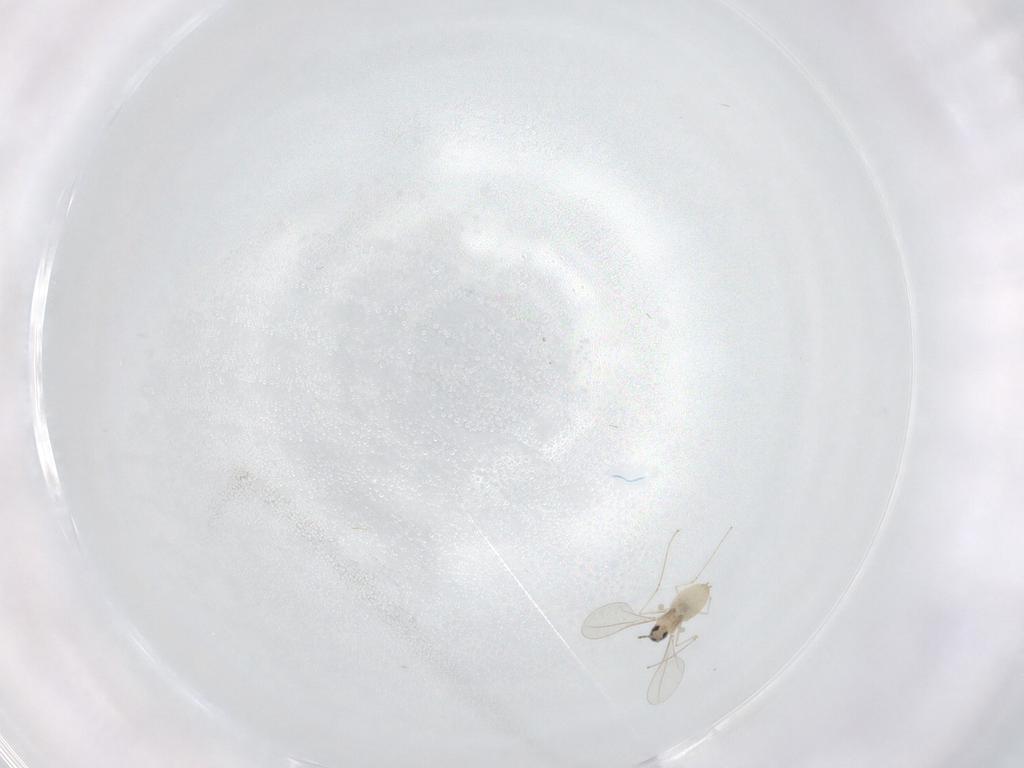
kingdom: Animalia
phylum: Arthropoda
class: Insecta
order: Diptera
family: Cecidomyiidae
